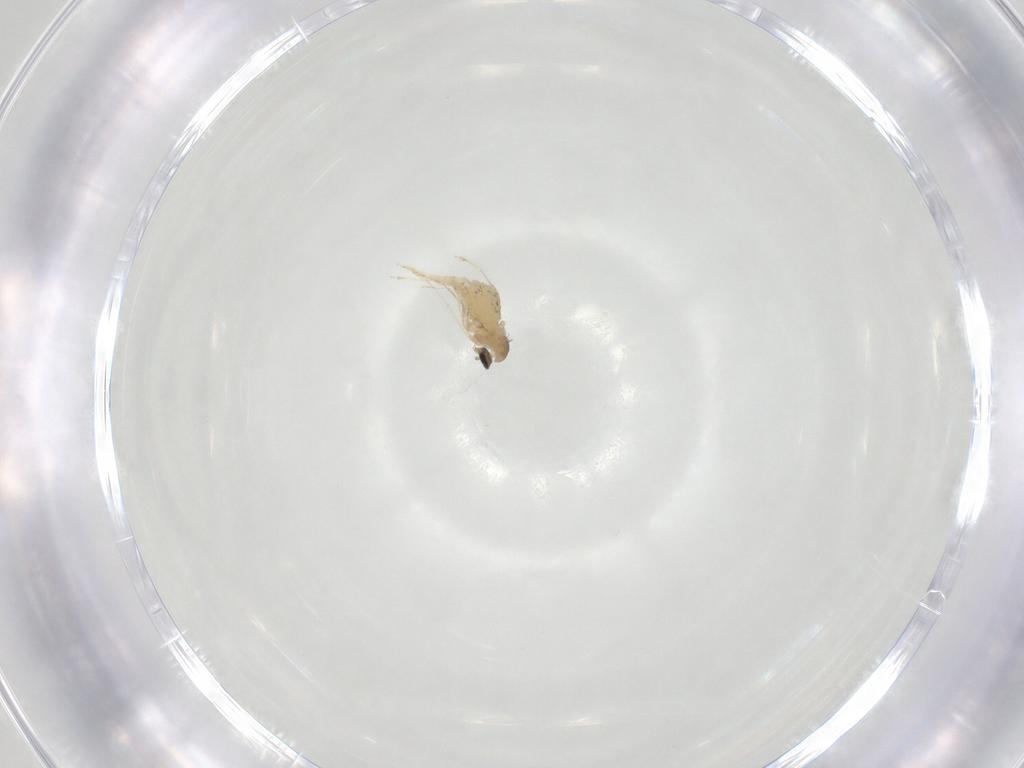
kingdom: Animalia
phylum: Arthropoda
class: Insecta
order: Diptera
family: Cecidomyiidae
